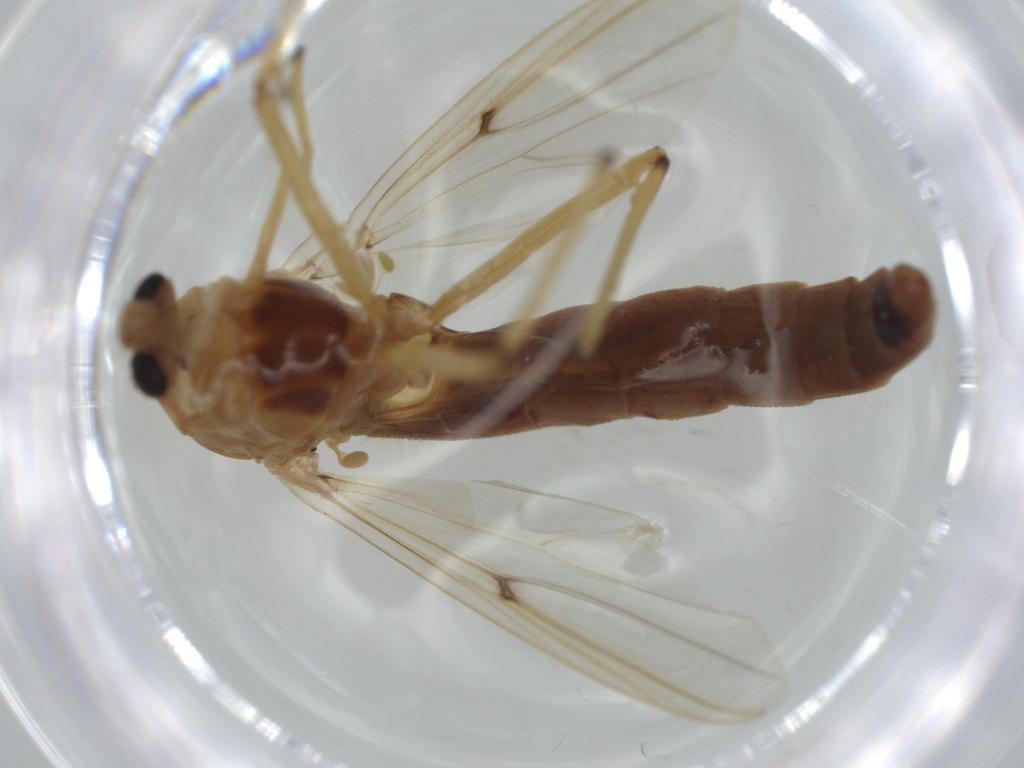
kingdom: Animalia
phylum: Arthropoda
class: Insecta
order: Diptera
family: Chironomidae
